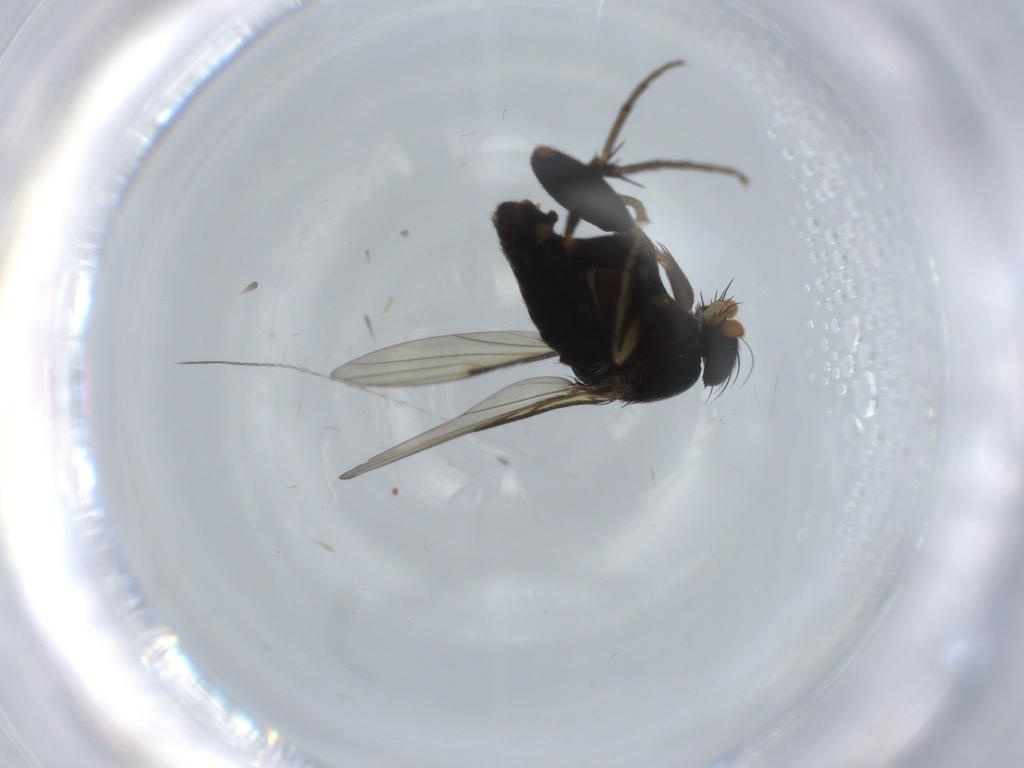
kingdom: Animalia
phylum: Arthropoda
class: Insecta
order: Diptera
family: Phoridae
